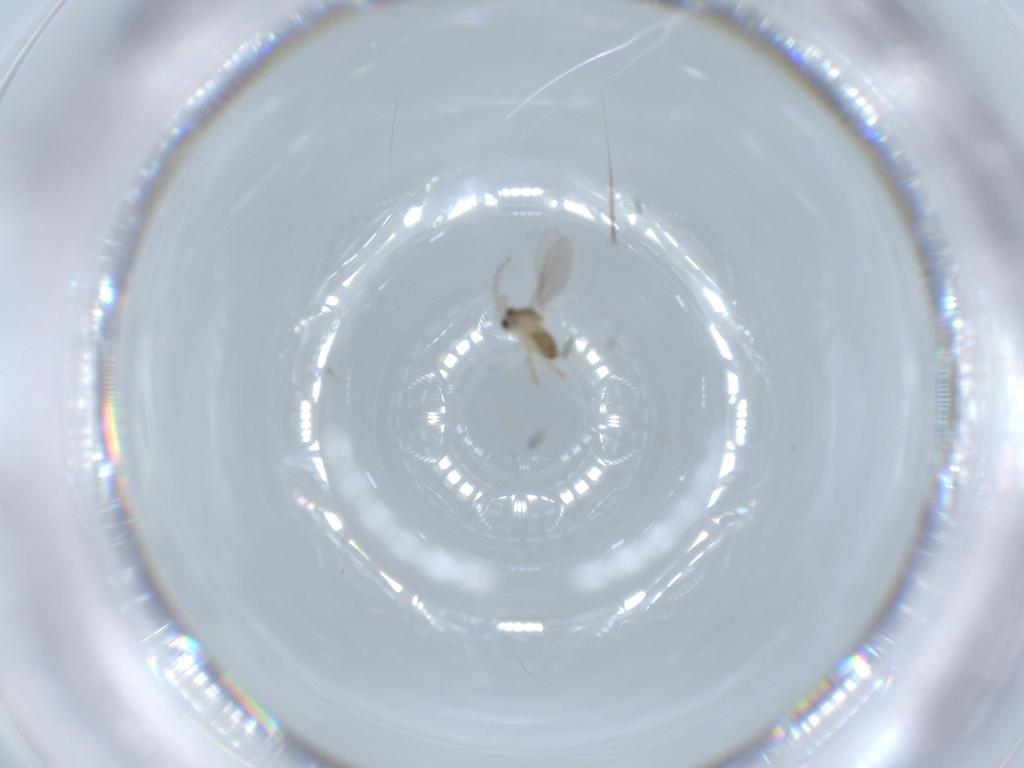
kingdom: Animalia
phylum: Arthropoda
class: Insecta
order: Diptera
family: Cecidomyiidae
